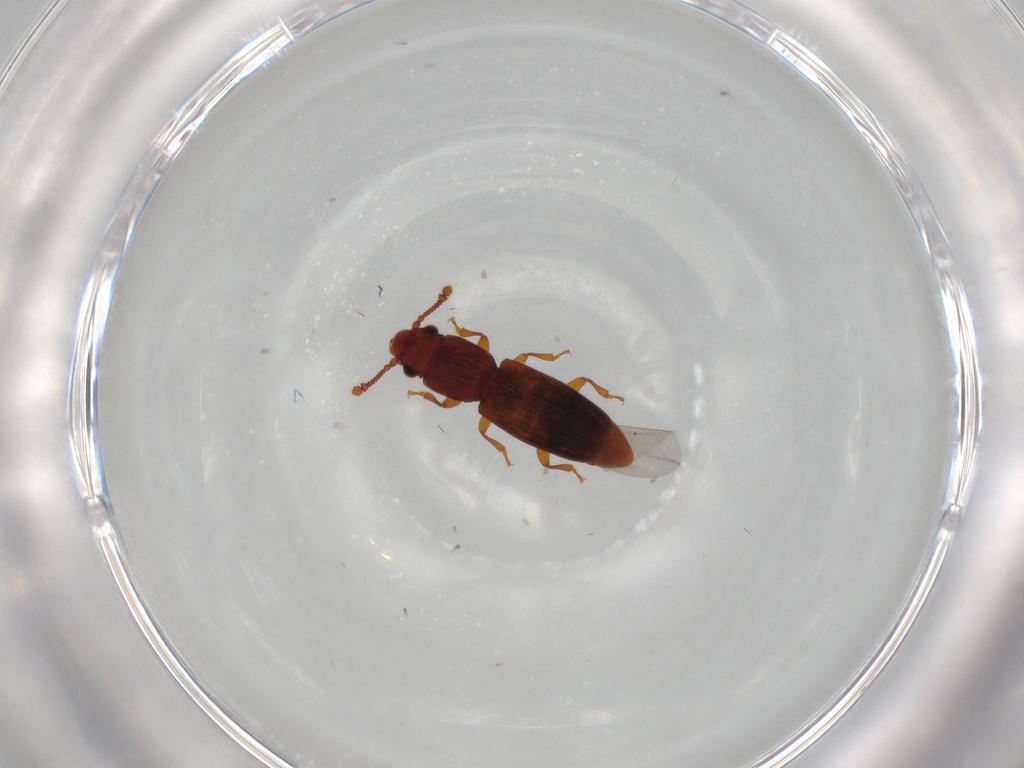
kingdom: Animalia
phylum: Arthropoda
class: Insecta
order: Coleoptera
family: Monotomidae
